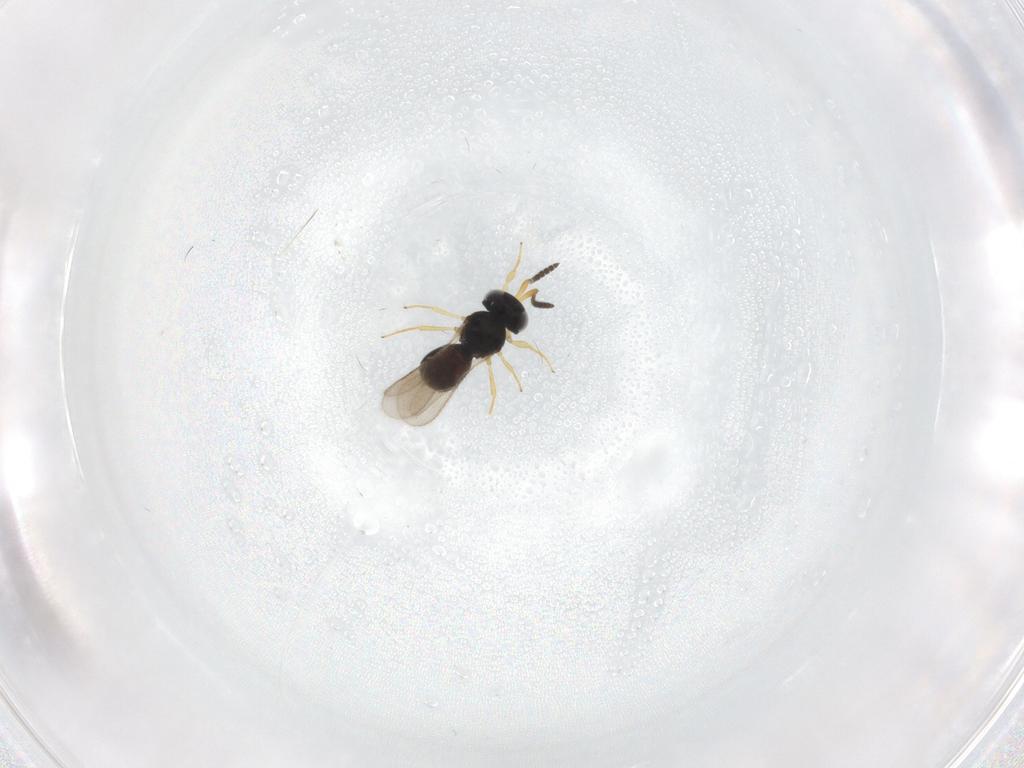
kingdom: Animalia
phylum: Arthropoda
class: Insecta
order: Hymenoptera
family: Scelionidae
